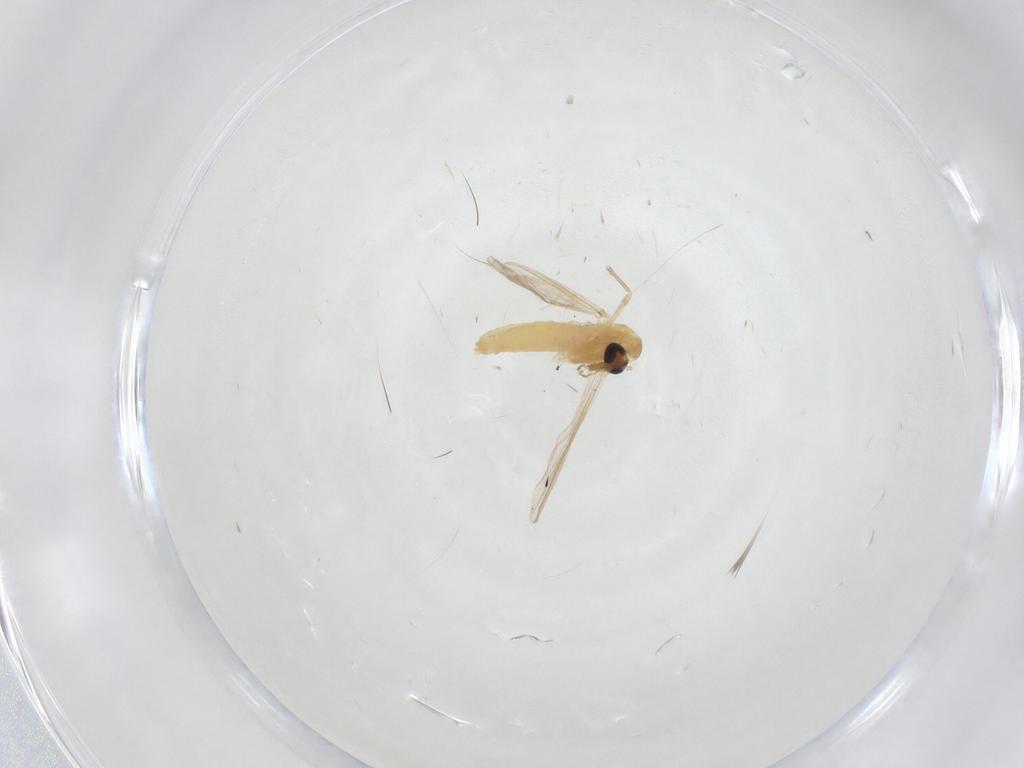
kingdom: Animalia
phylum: Arthropoda
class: Insecta
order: Diptera
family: Chironomidae
